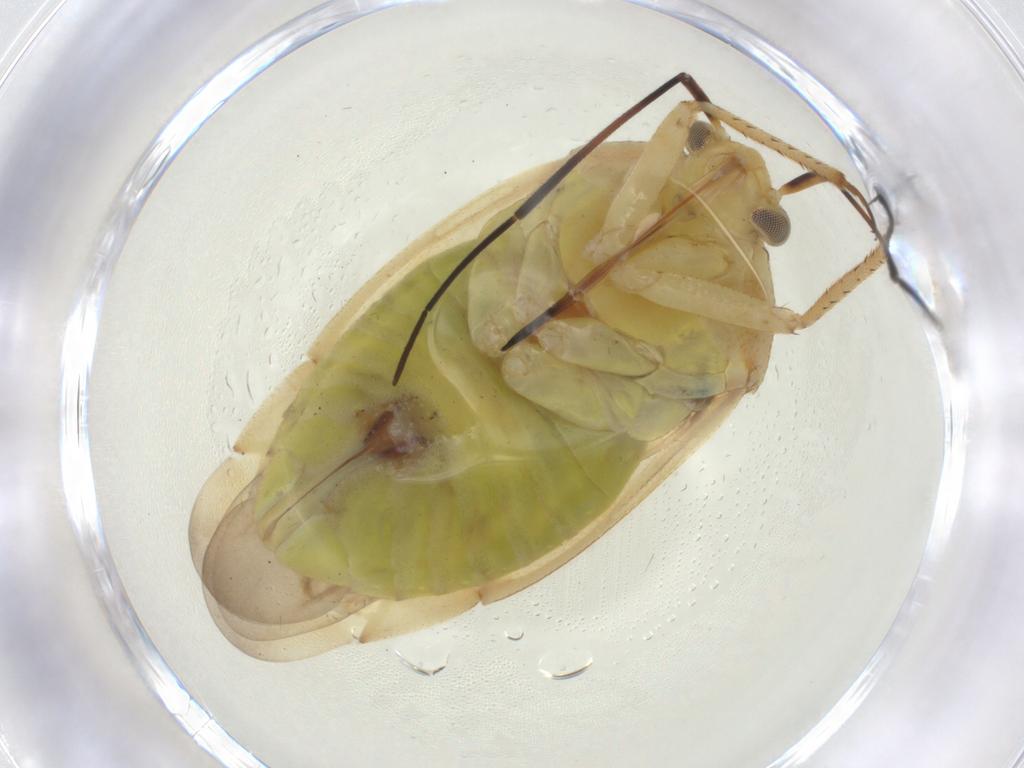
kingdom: Animalia
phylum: Arthropoda
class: Insecta
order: Hemiptera
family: Miridae
